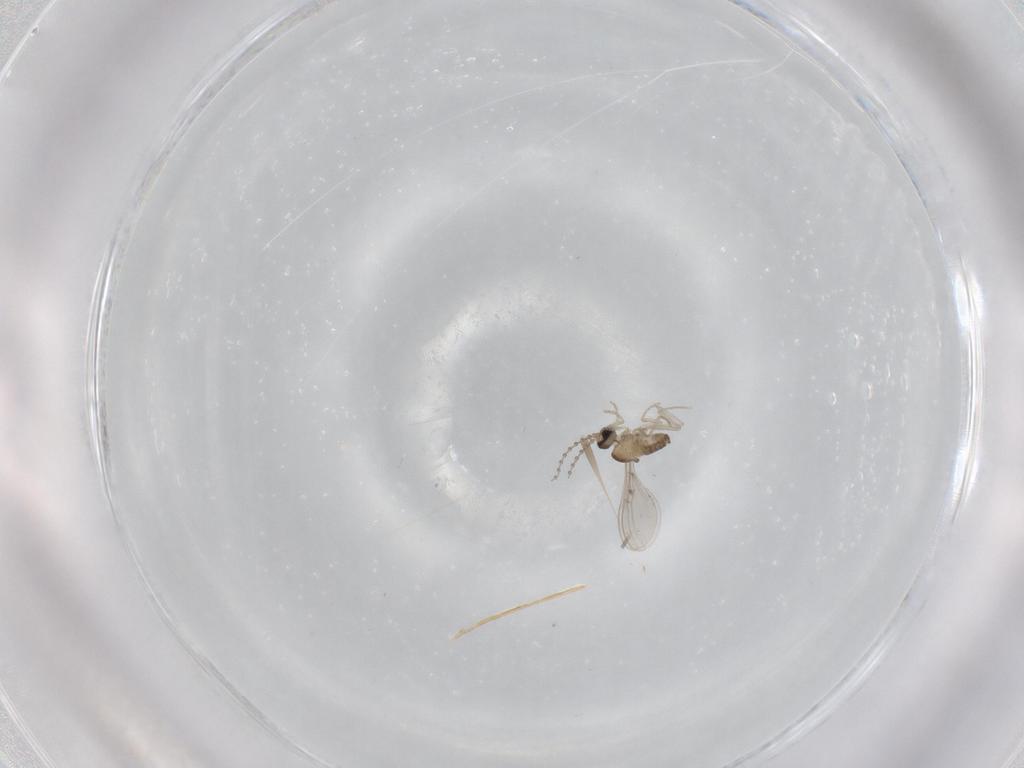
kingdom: Animalia
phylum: Arthropoda
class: Insecta
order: Diptera
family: Cecidomyiidae
